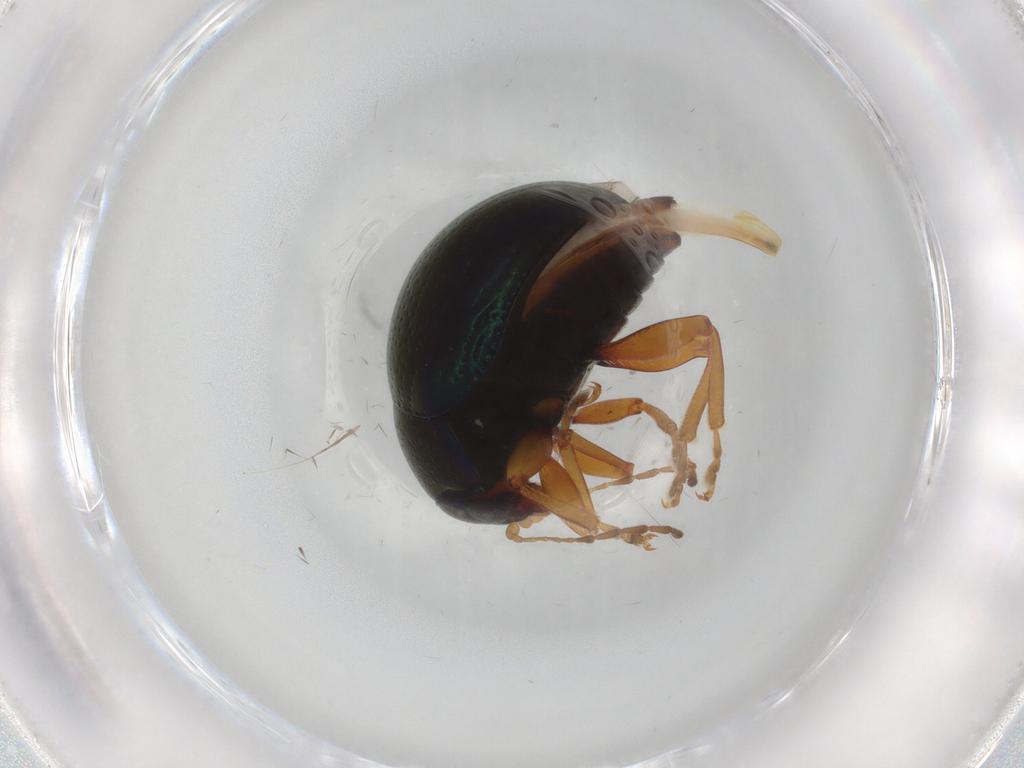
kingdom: Animalia
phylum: Arthropoda
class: Insecta
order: Coleoptera
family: Chrysomelidae
